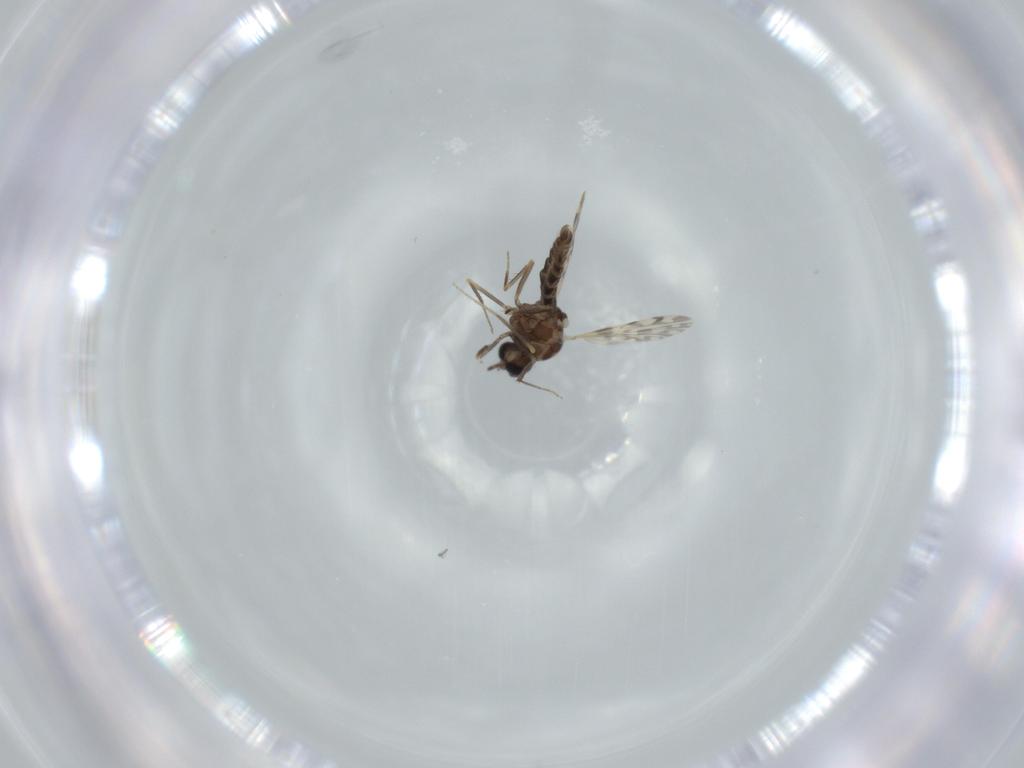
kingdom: Animalia
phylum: Arthropoda
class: Insecta
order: Diptera
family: Ceratopogonidae
